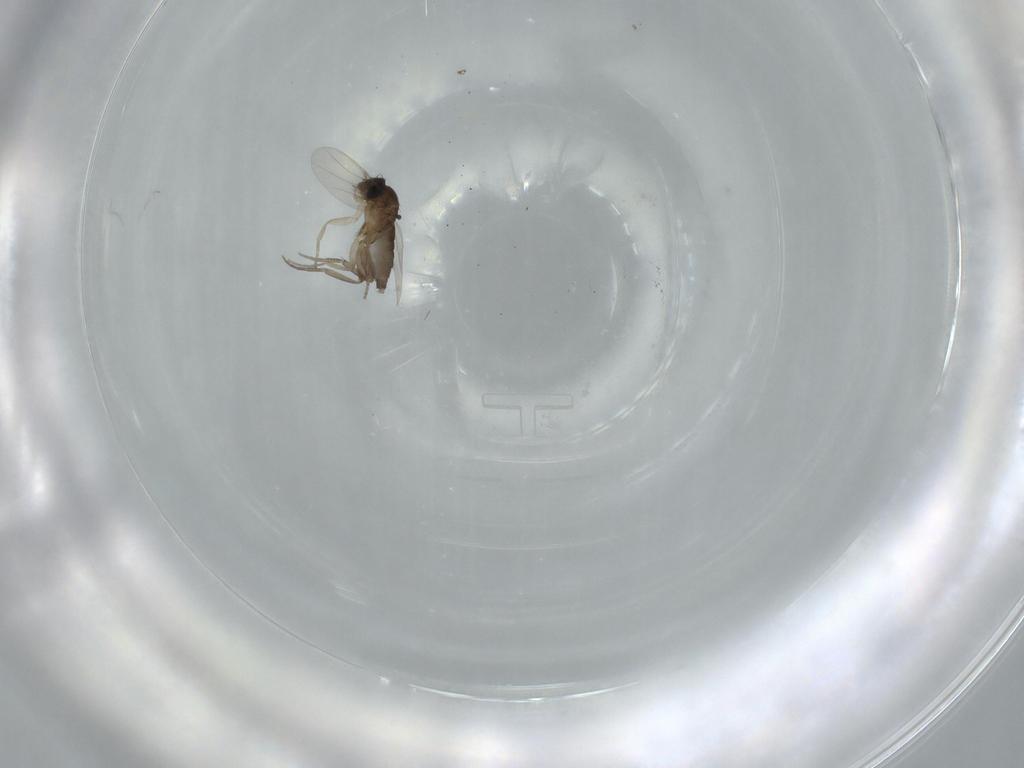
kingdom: Animalia
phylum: Arthropoda
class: Insecta
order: Diptera
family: Phoridae
